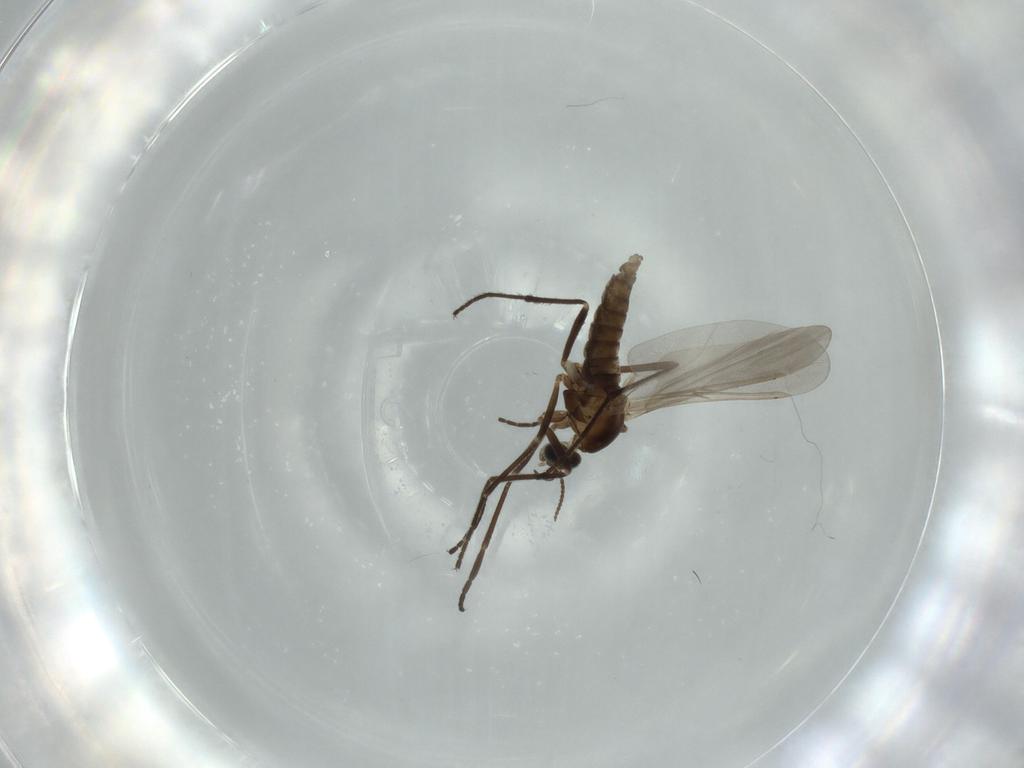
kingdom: Animalia
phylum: Arthropoda
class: Insecta
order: Diptera
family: Cecidomyiidae
